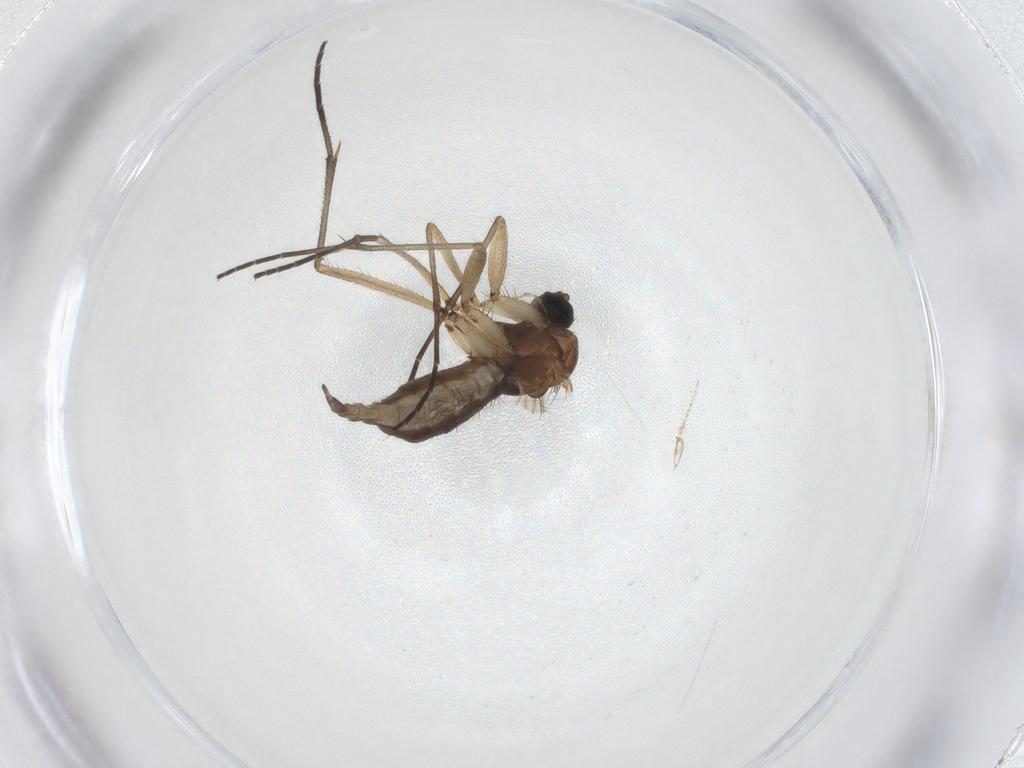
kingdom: Animalia
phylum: Arthropoda
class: Insecta
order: Diptera
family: Sciaridae
